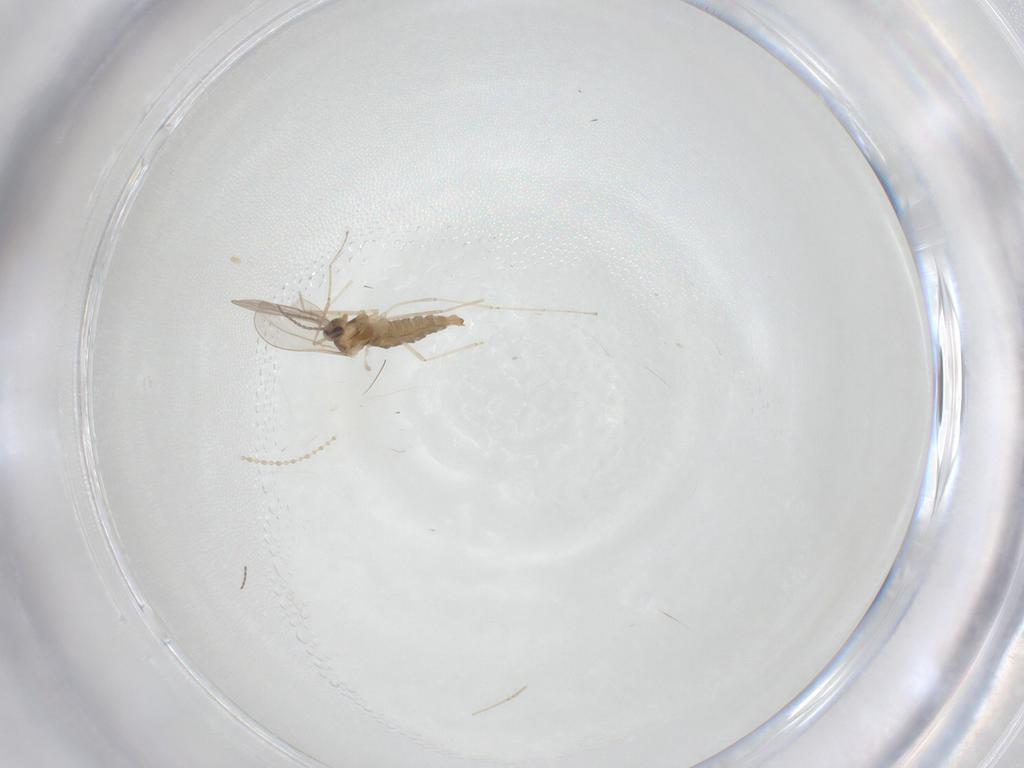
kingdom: Animalia
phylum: Arthropoda
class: Insecta
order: Diptera
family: Cecidomyiidae
